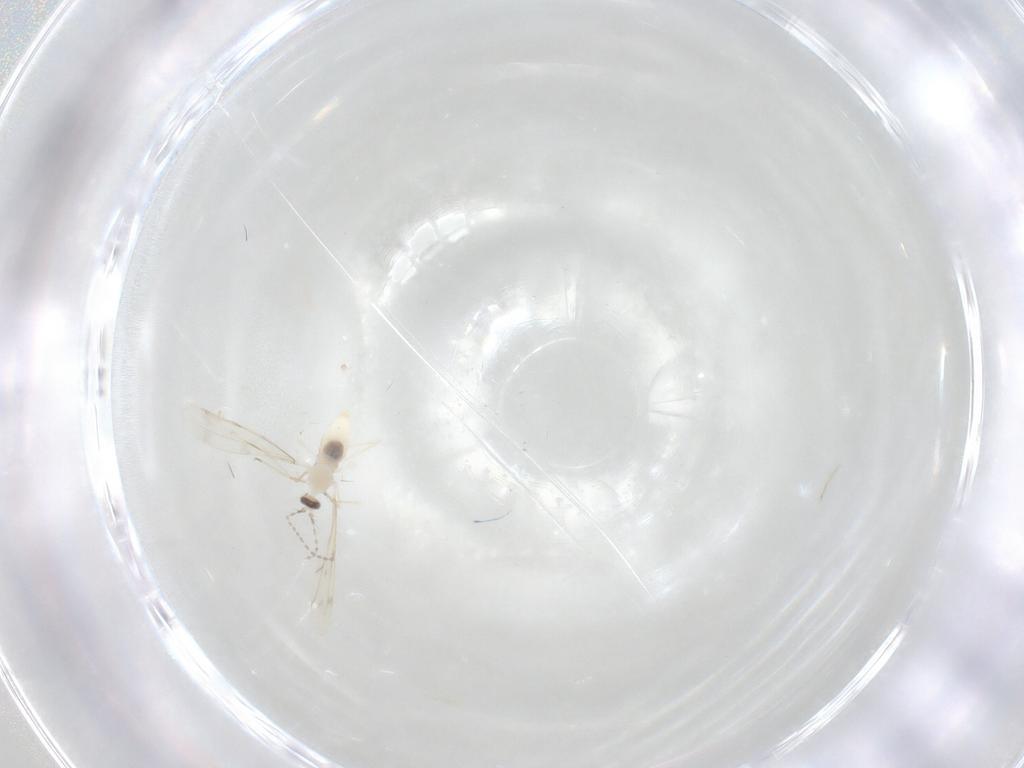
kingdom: Animalia
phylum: Arthropoda
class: Insecta
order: Diptera
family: Cecidomyiidae
